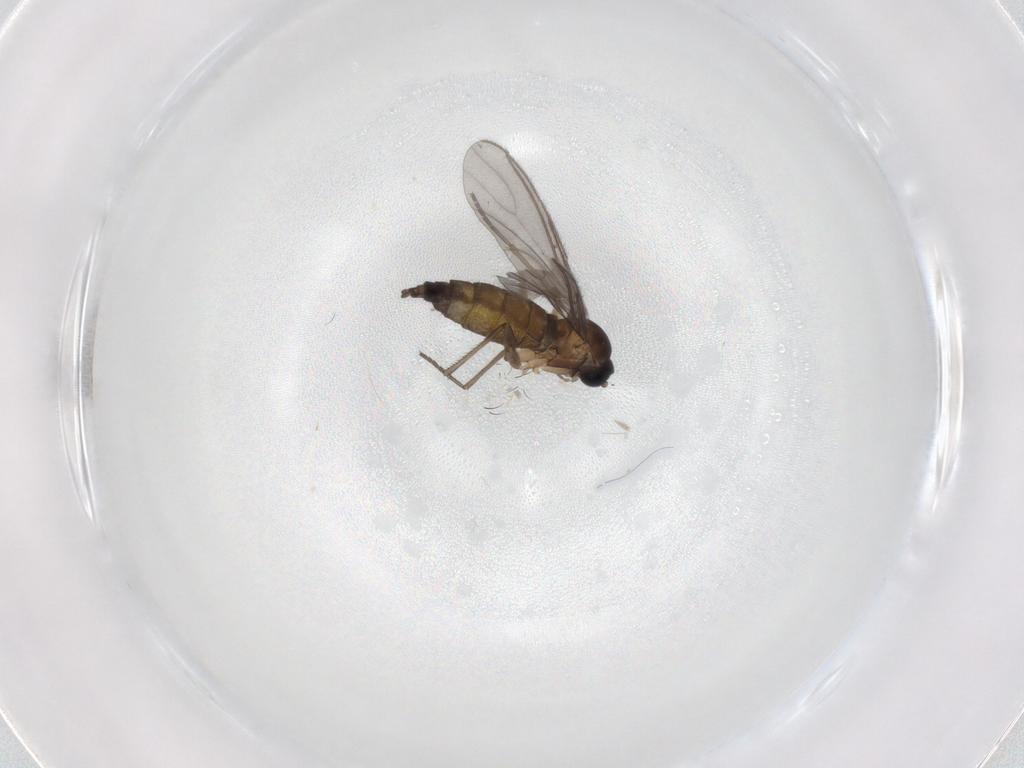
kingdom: Animalia
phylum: Arthropoda
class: Insecta
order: Diptera
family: Sciaridae
